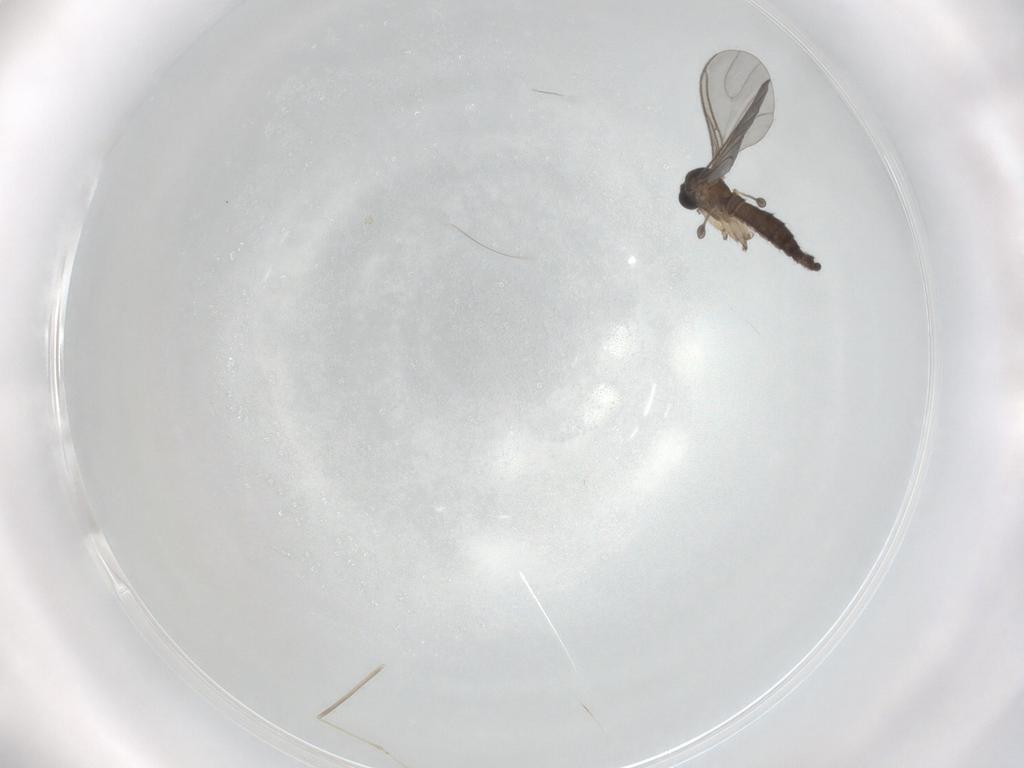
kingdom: Animalia
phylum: Arthropoda
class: Insecta
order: Diptera
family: Sciaridae
